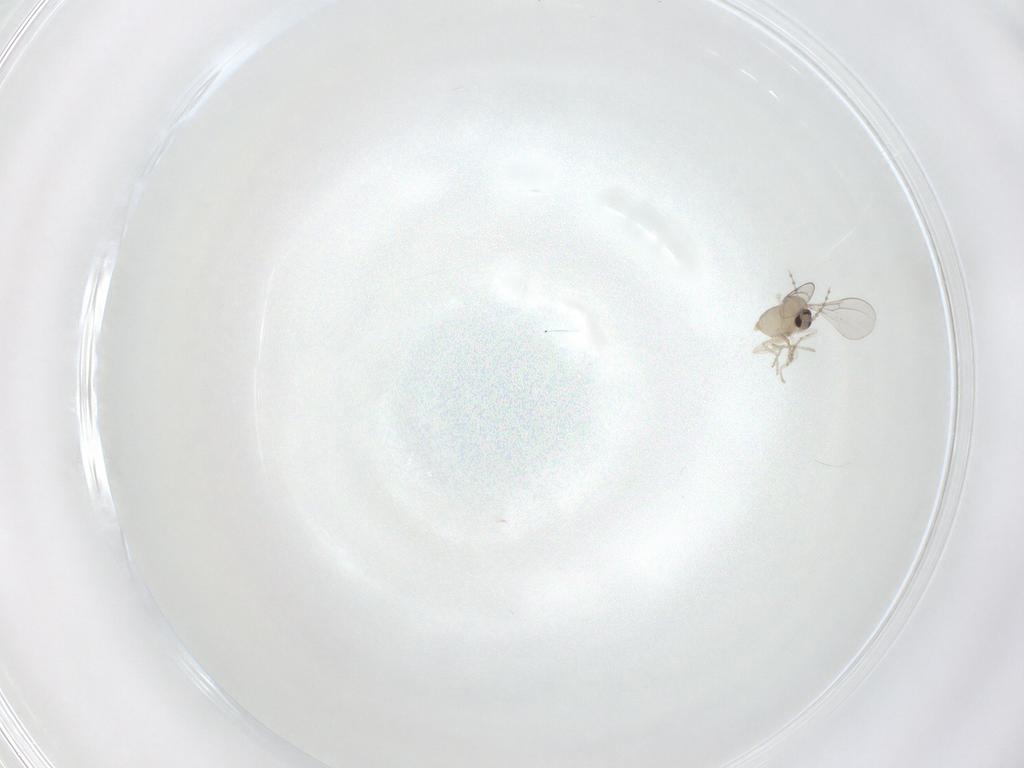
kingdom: Animalia
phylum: Arthropoda
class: Insecta
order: Diptera
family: Cecidomyiidae
